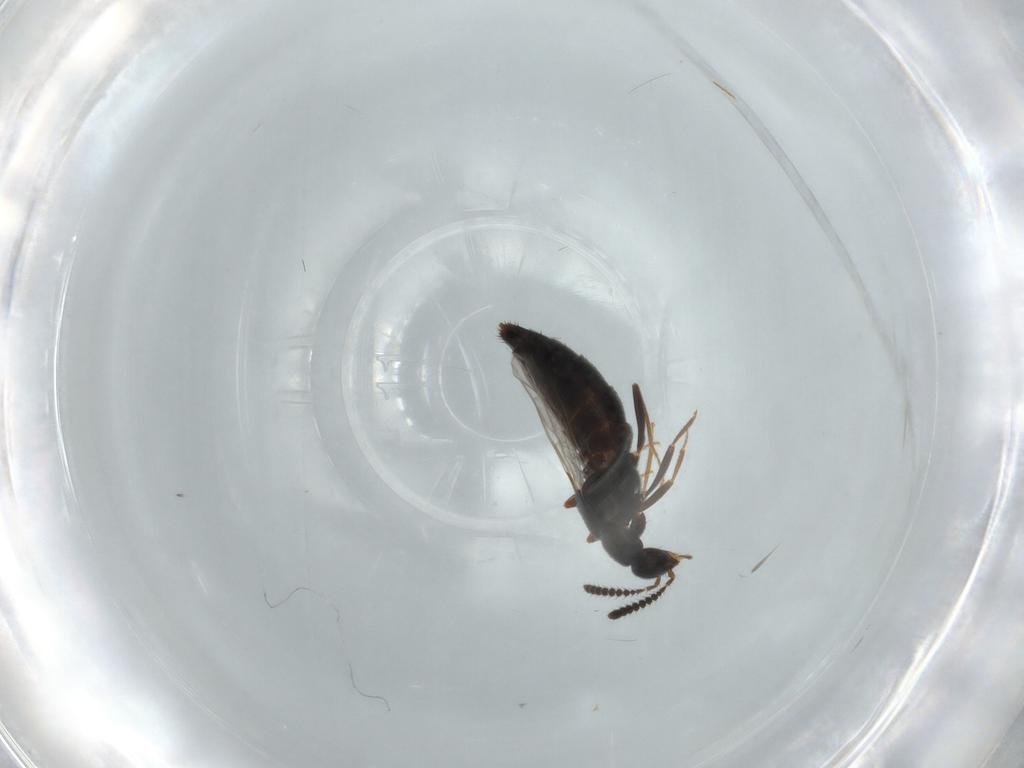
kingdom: Animalia
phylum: Arthropoda
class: Insecta
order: Coleoptera
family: Staphylinidae
